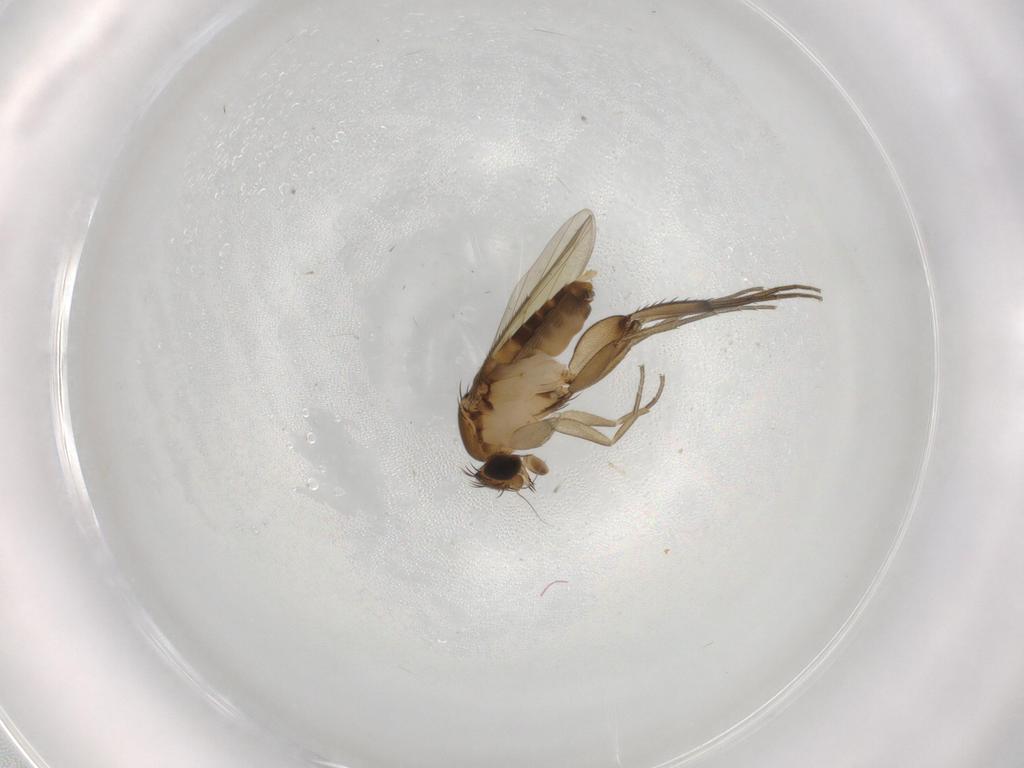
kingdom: Animalia
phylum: Arthropoda
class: Insecta
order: Diptera
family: Phoridae
